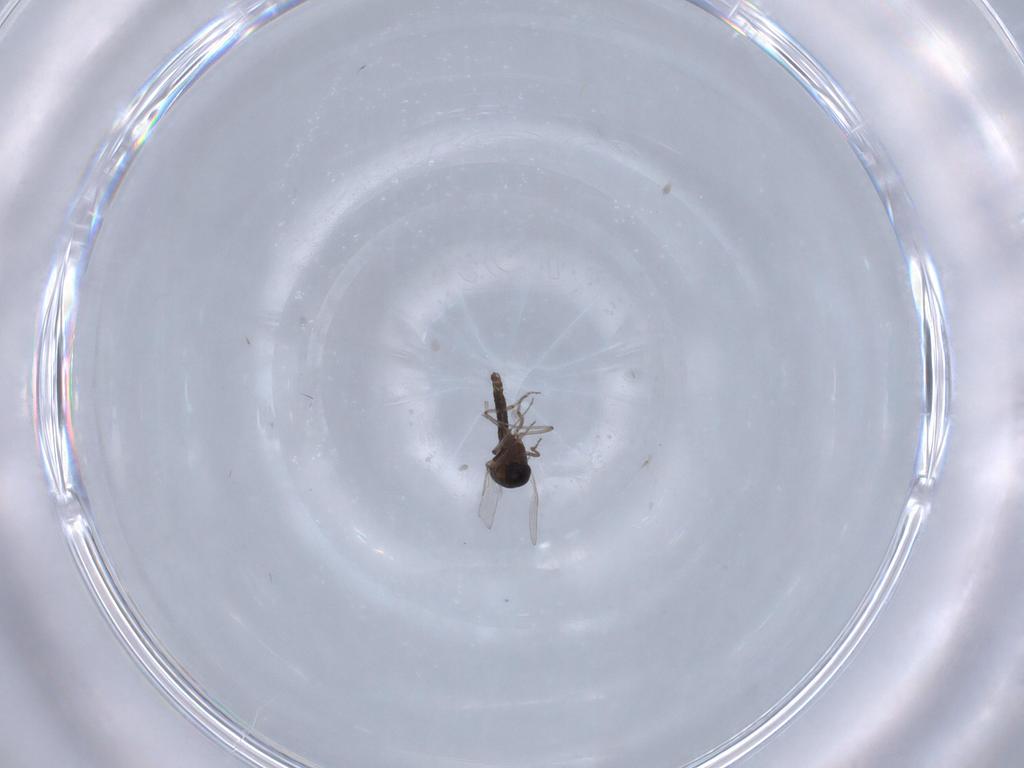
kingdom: Animalia
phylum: Arthropoda
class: Insecta
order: Diptera
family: Ceratopogonidae
